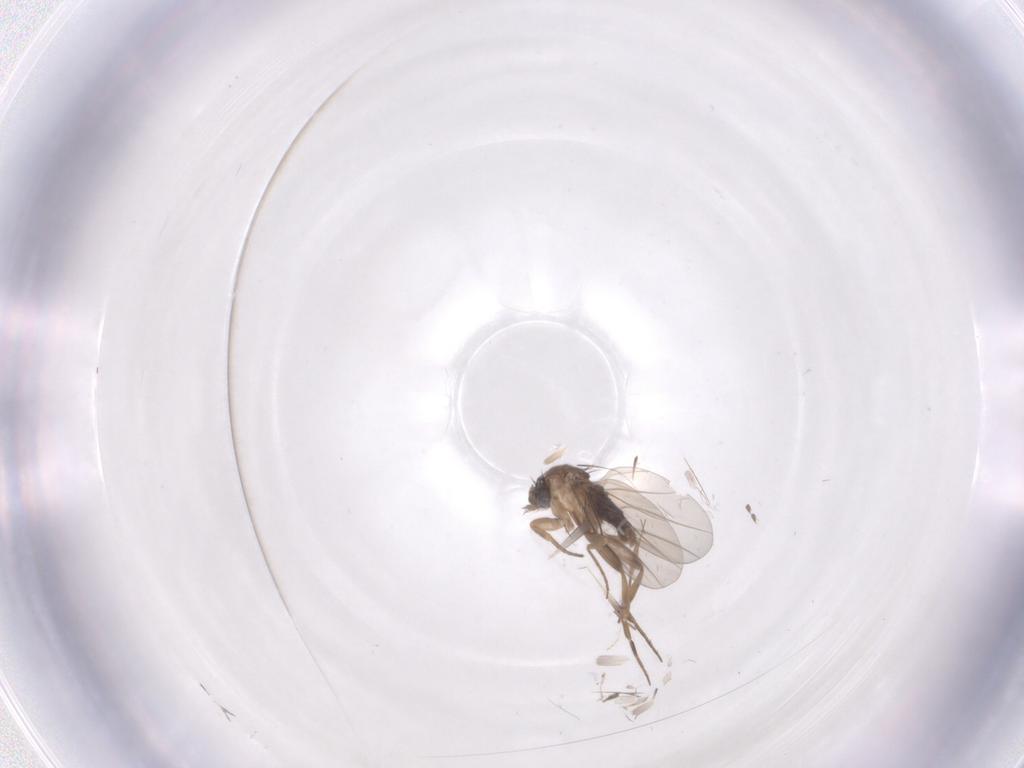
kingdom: Animalia
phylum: Arthropoda
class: Insecta
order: Diptera
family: Phoridae
